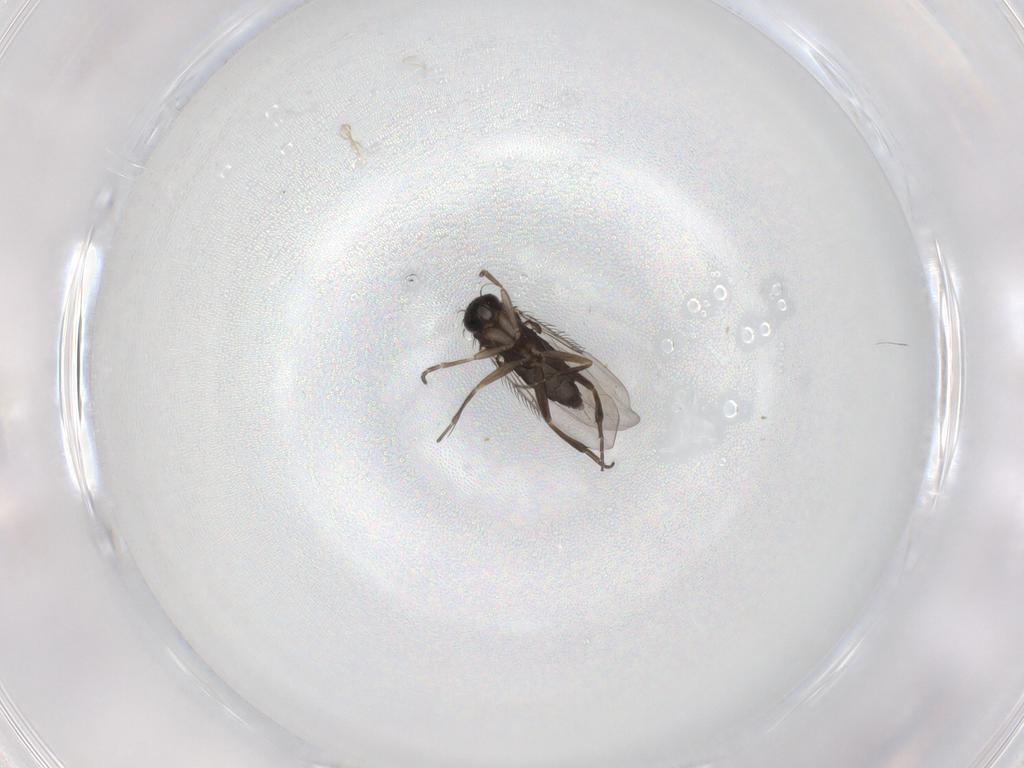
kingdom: Animalia
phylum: Arthropoda
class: Insecta
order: Diptera
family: Phoridae
